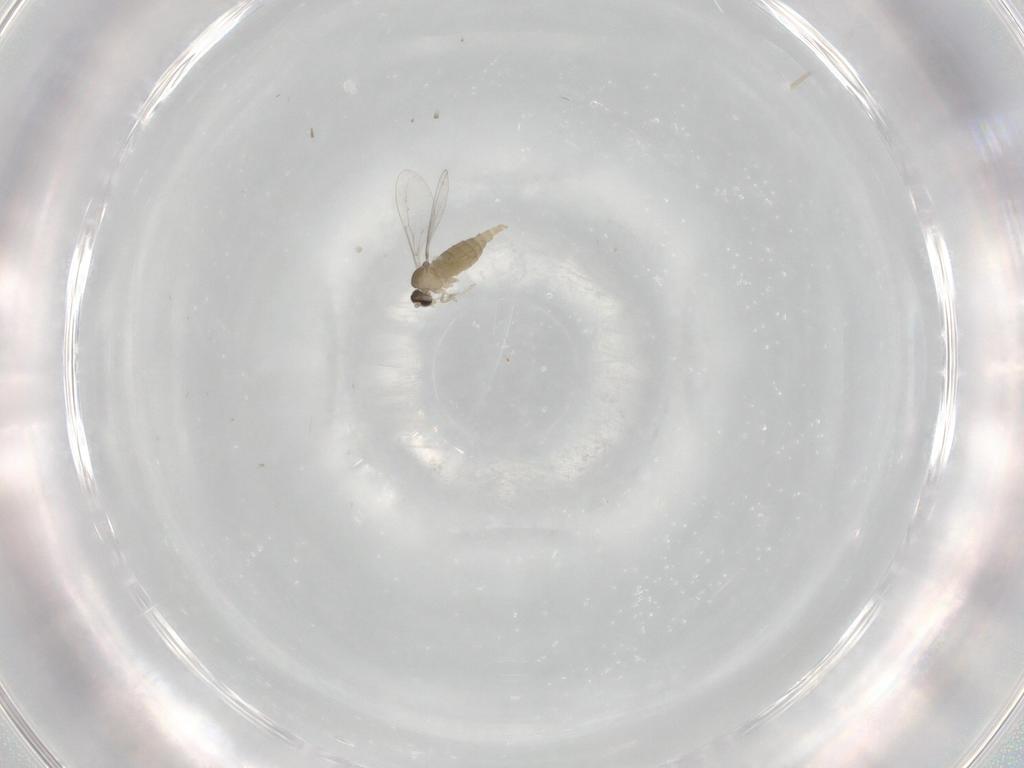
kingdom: Animalia
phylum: Arthropoda
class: Insecta
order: Diptera
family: Cecidomyiidae
